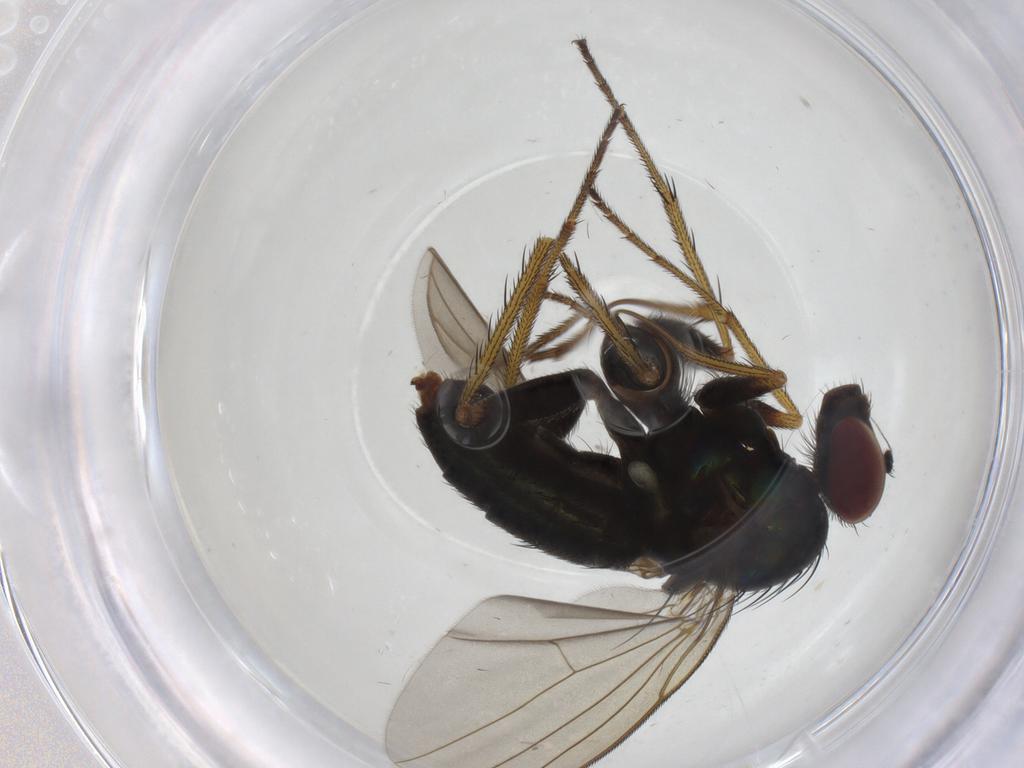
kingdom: Animalia
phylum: Arthropoda
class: Insecta
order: Diptera
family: Dolichopodidae
